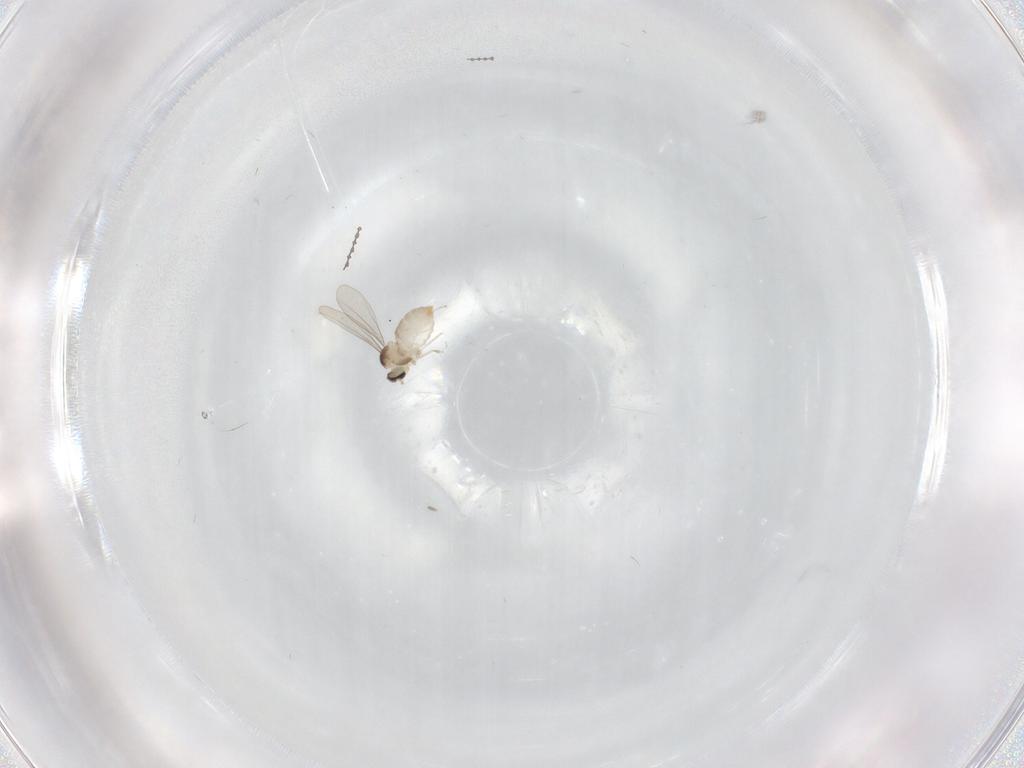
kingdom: Animalia
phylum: Arthropoda
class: Insecta
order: Diptera
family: Cecidomyiidae
